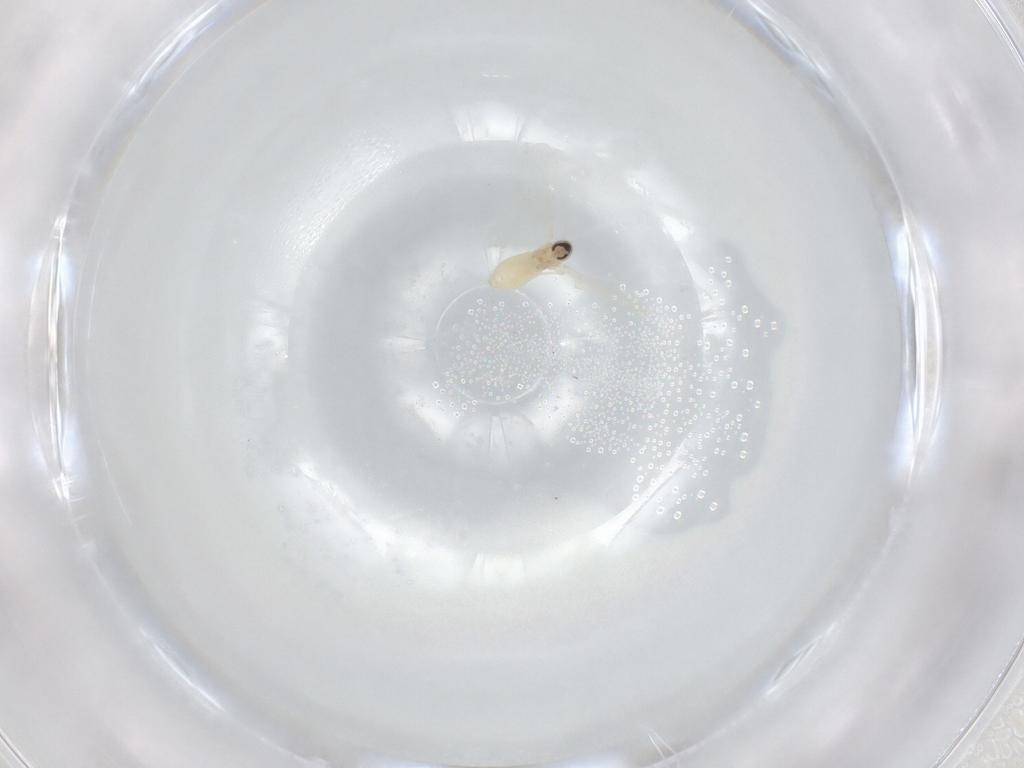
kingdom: Animalia
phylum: Arthropoda
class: Insecta
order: Diptera
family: Cecidomyiidae
